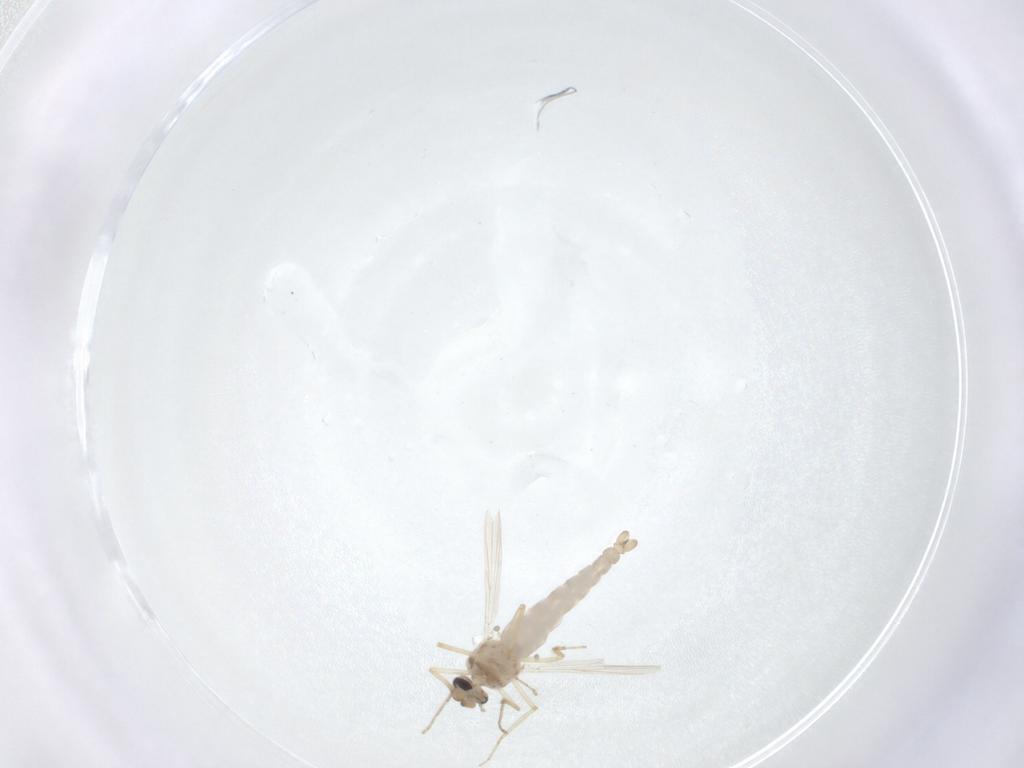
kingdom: Animalia
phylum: Arthropoda
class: Insecta
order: Diptera
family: Ceratopogonidae
